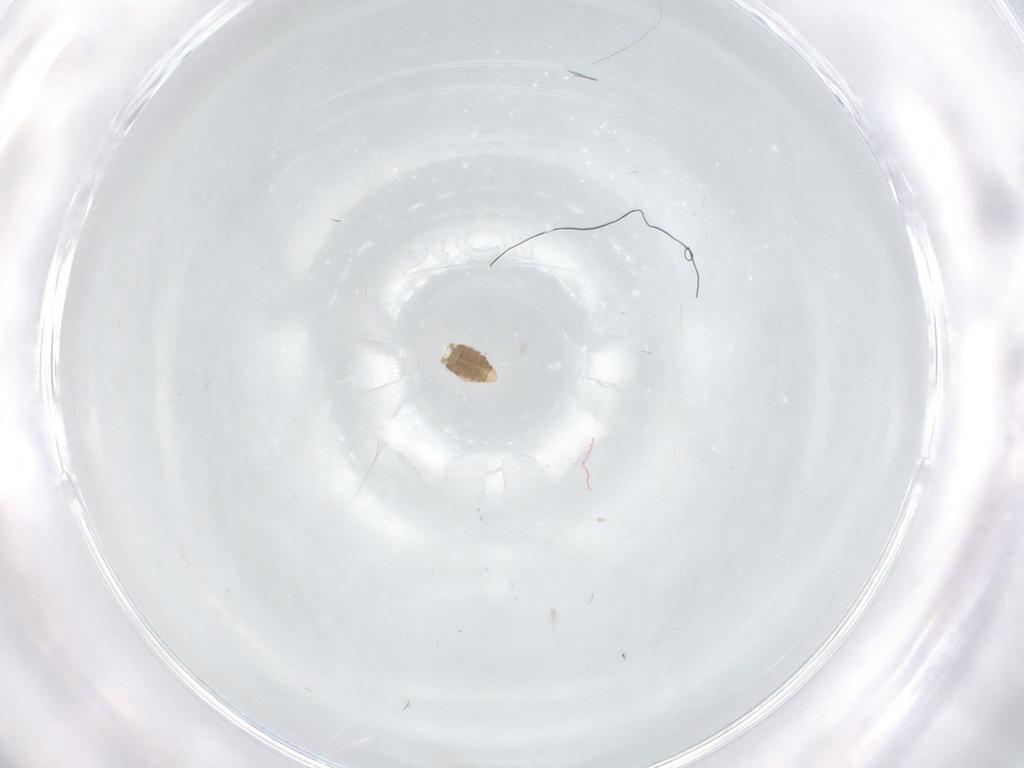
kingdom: Animalia
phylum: Arthropoda
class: Insecta
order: Diptera
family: Ceratopogonidae
